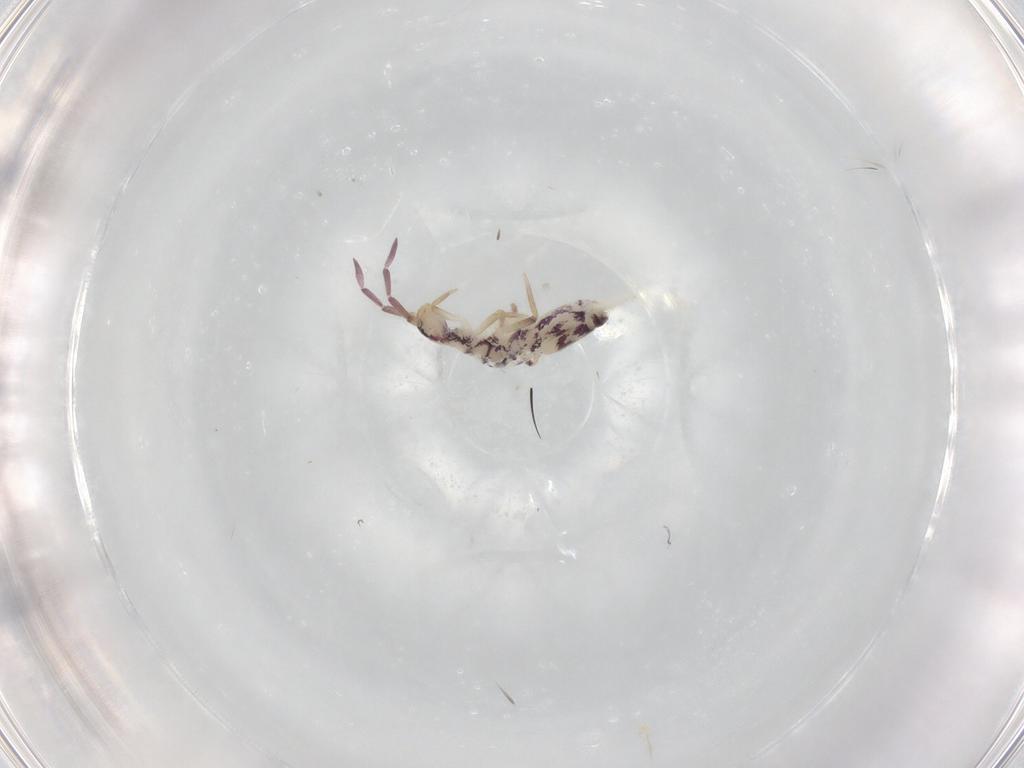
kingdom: Animalia
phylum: Arthropoda
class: Collembola
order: Entomobryomorpha
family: Entomobryidae
